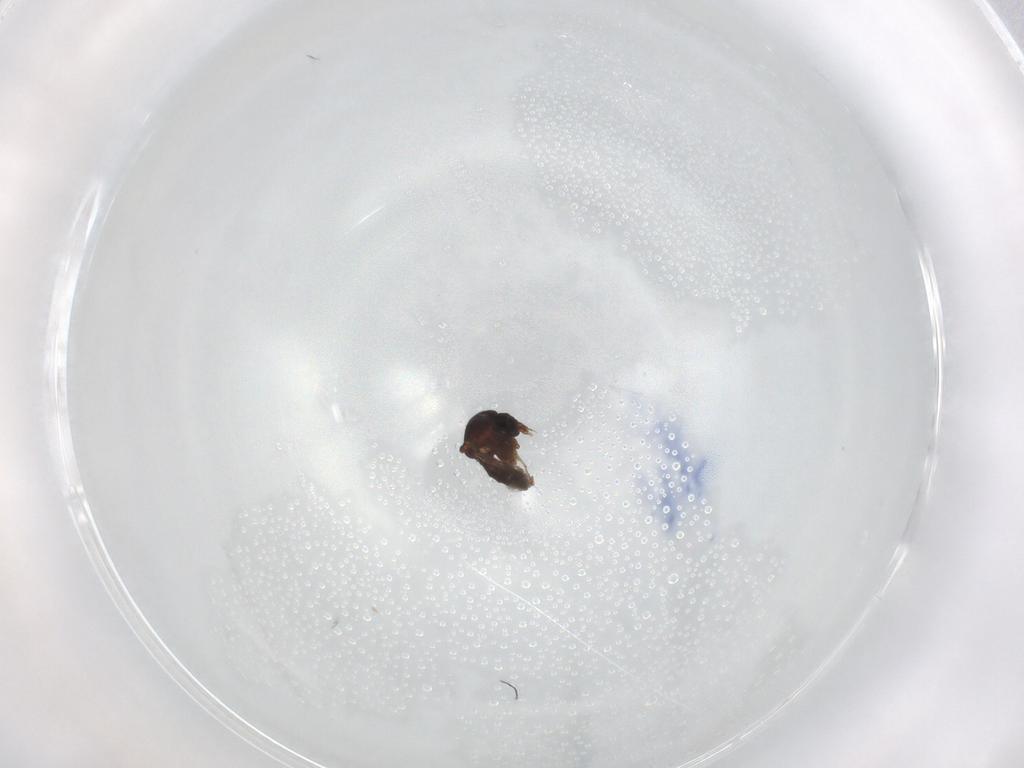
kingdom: Animalia
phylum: Arthropoda
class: Insecta
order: Diptera
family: Ceratopogonidae
